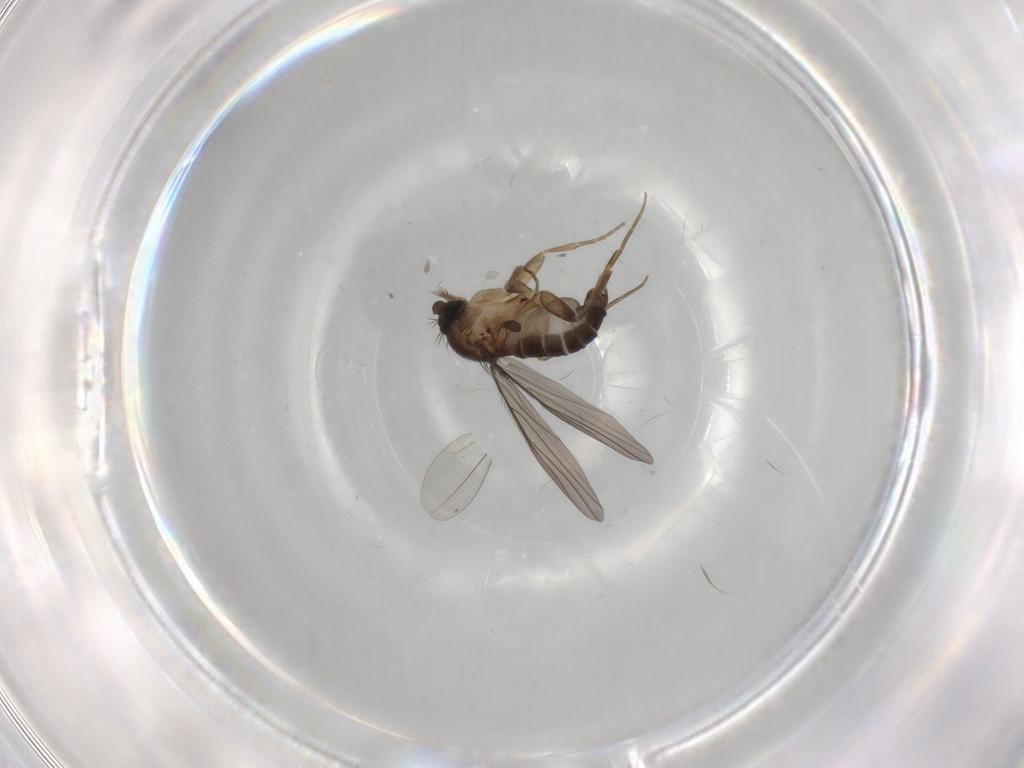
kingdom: Animalia
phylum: Arthropoda
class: Insecta
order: Diptera
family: Phoridae
